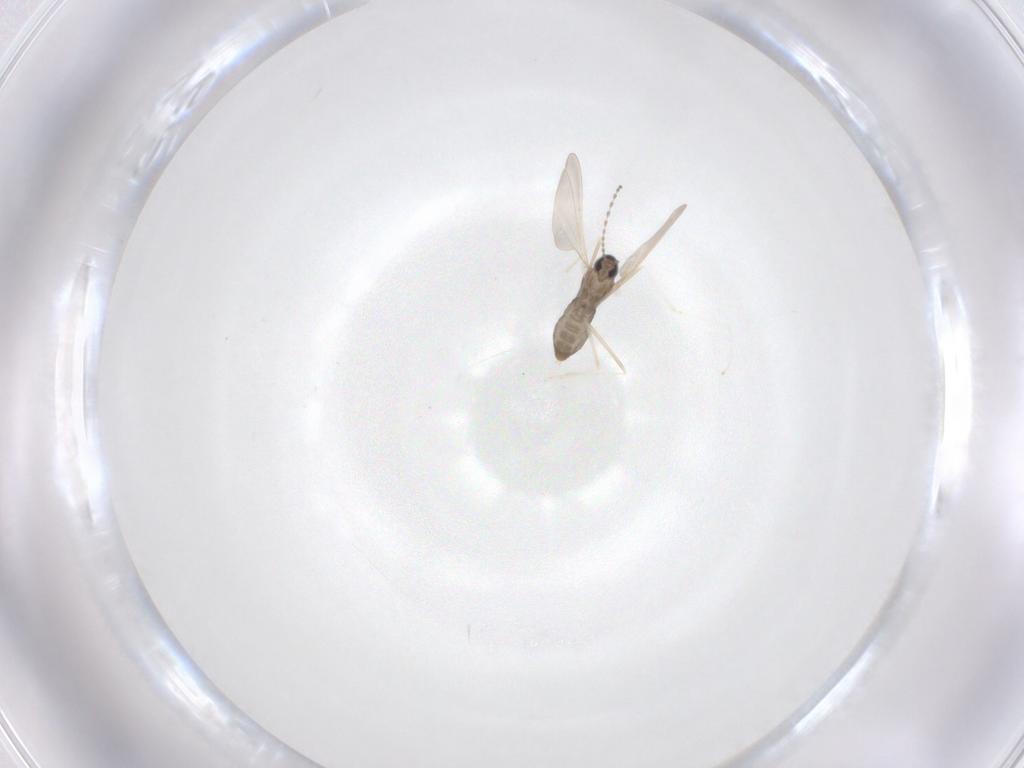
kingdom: Animalia
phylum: Arthropoda
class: Insecta
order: Diptera
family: Cecidomyiidae
